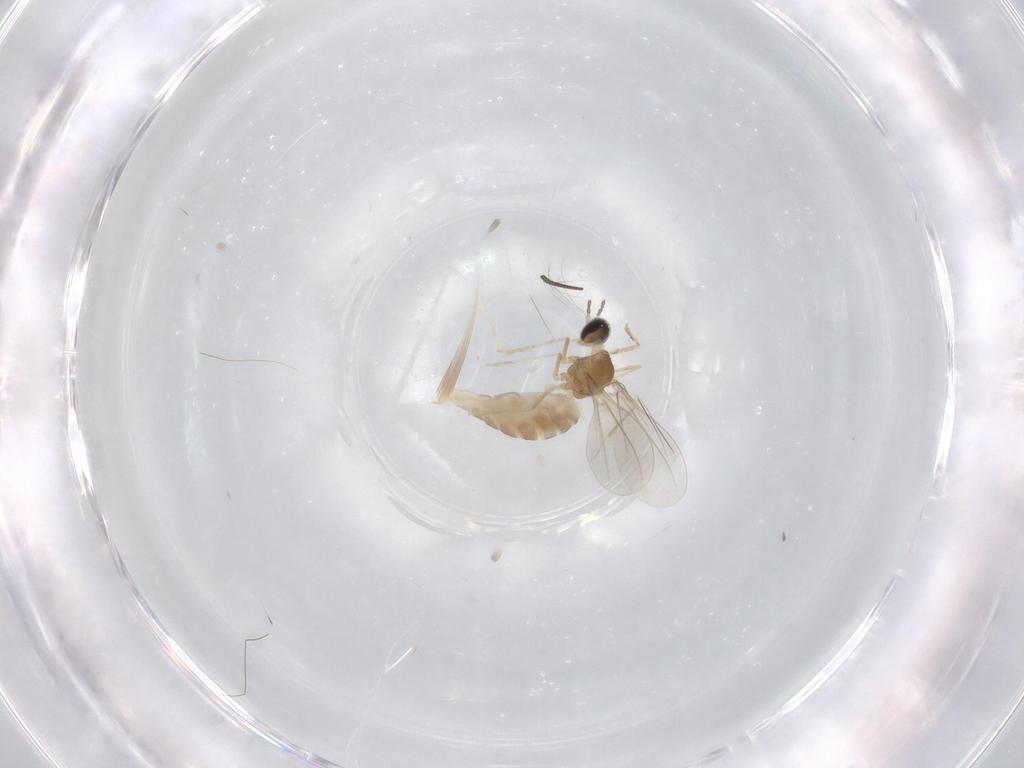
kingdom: Animalia
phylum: Arthropoda
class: Insecta
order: Diptera
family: Chironomidae
